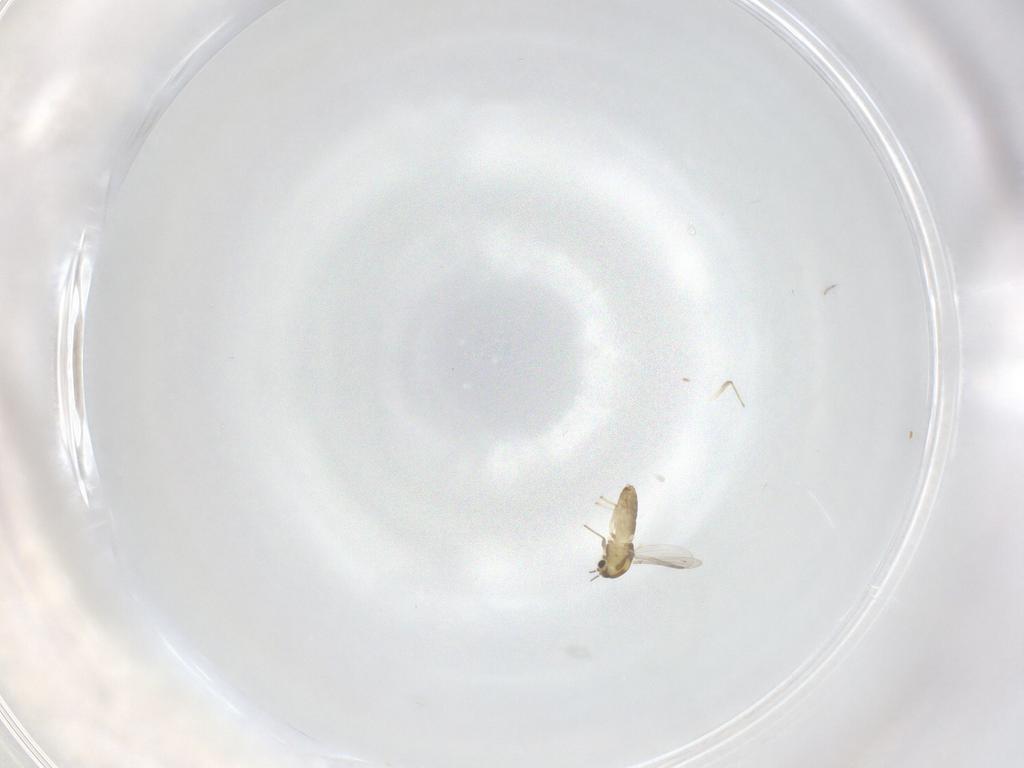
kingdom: Animalia
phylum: Arthropoda
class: Insecta
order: Diptera
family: Chironomidae
